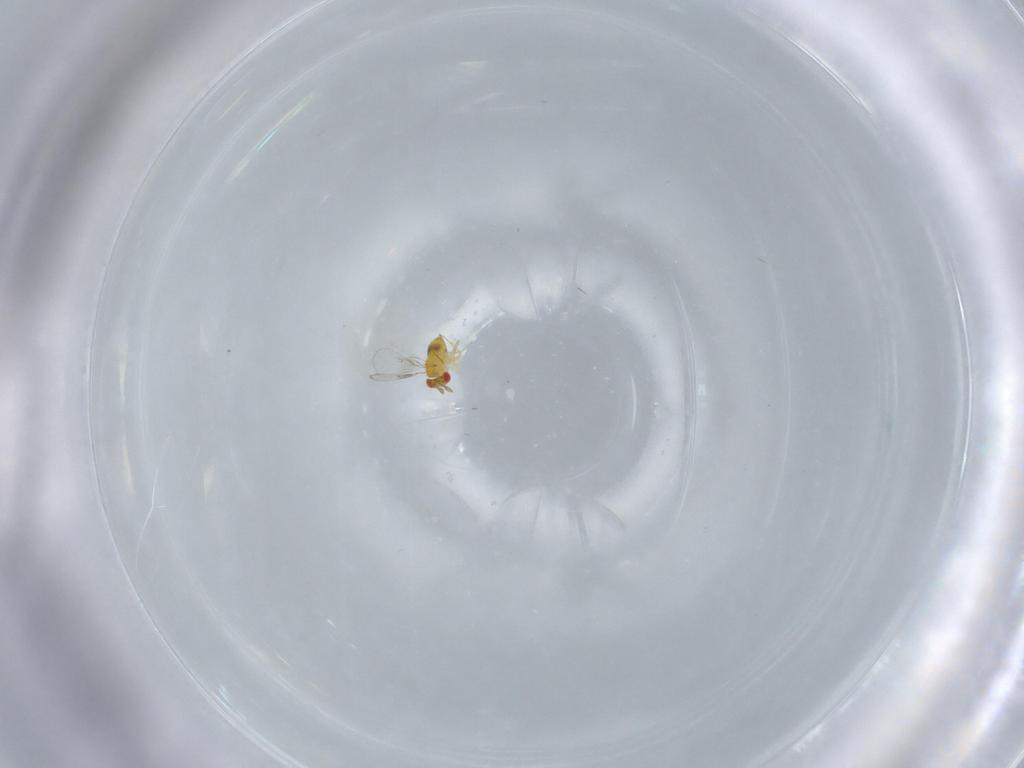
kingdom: Animalia
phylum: Arthropoda
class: Insecta
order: Hymenoptera
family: Trichogrammatidae
